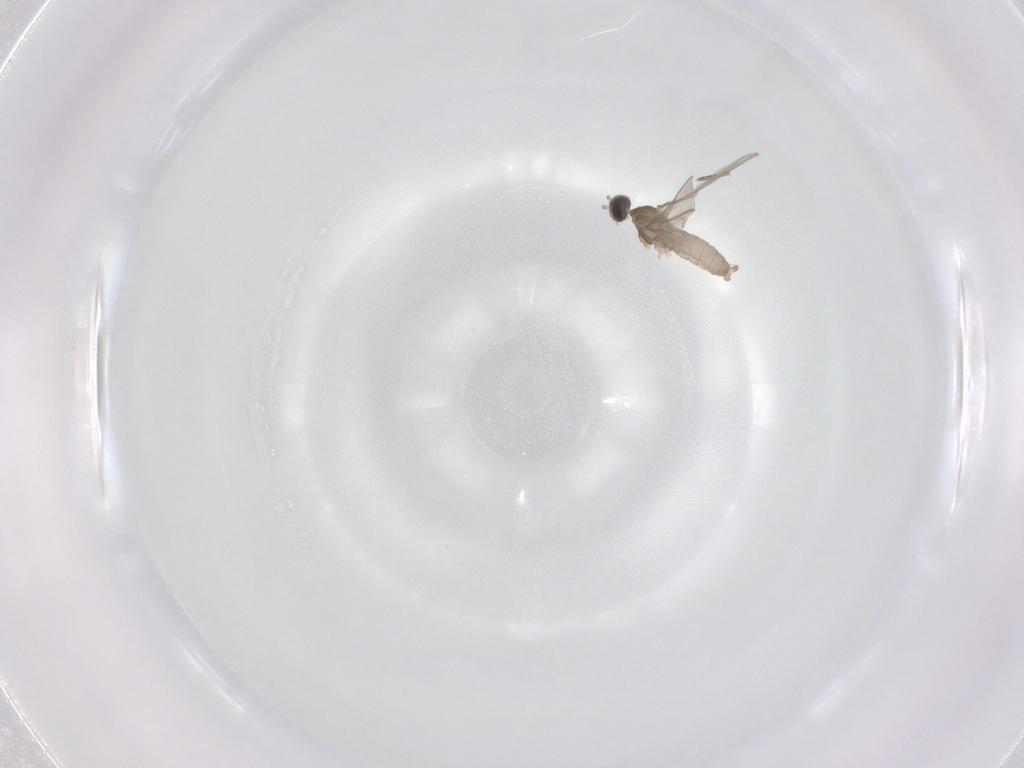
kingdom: Animalia
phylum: Arthropoda
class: Insecta
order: Diptera
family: Cecidomyiidae
